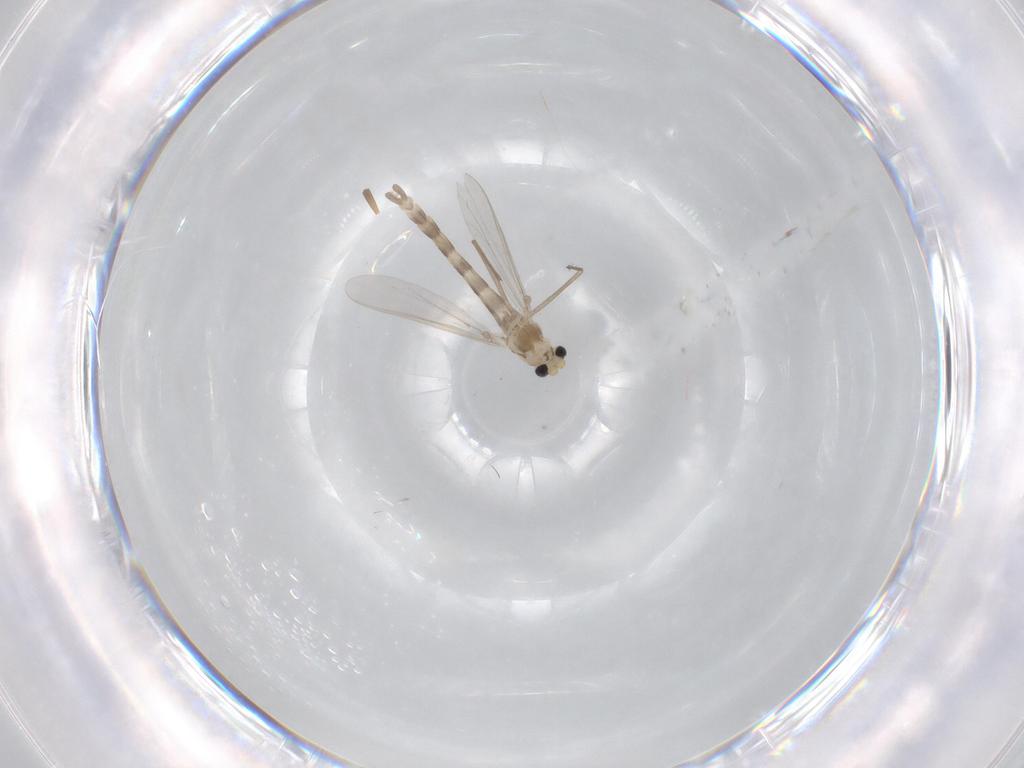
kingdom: Animalia
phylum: Arthropoda
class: Insecta
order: Diptera
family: Chironomidae
